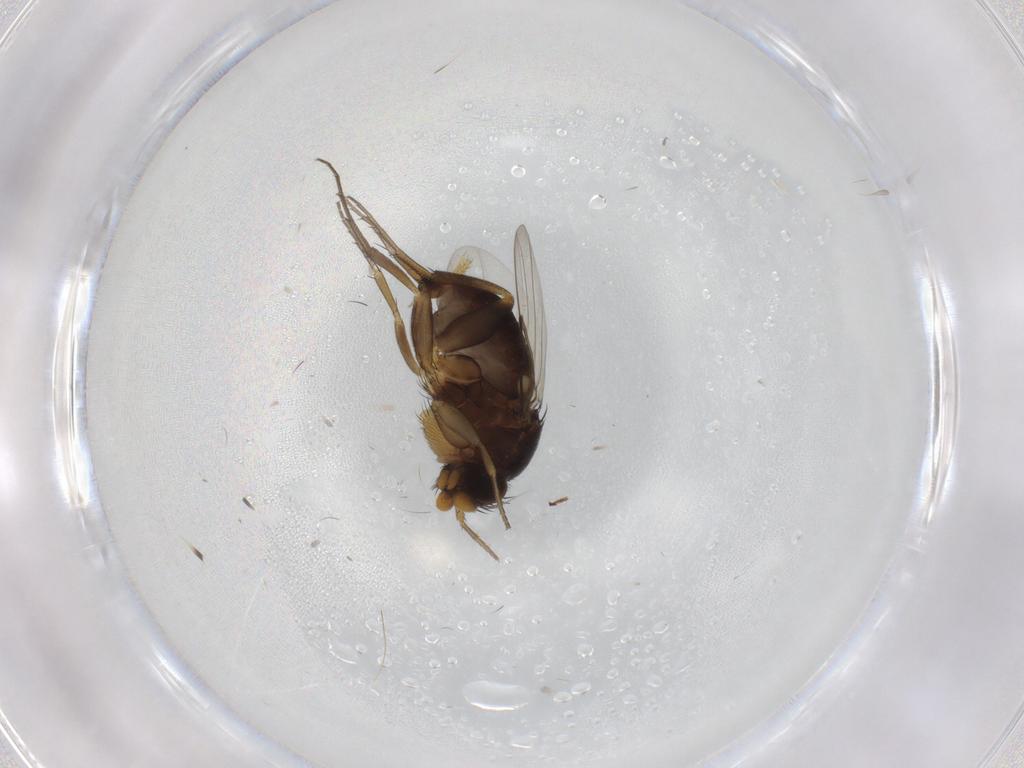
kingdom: Animalia
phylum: Arthropoda
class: Insecta
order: Diptera
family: Phoridae
